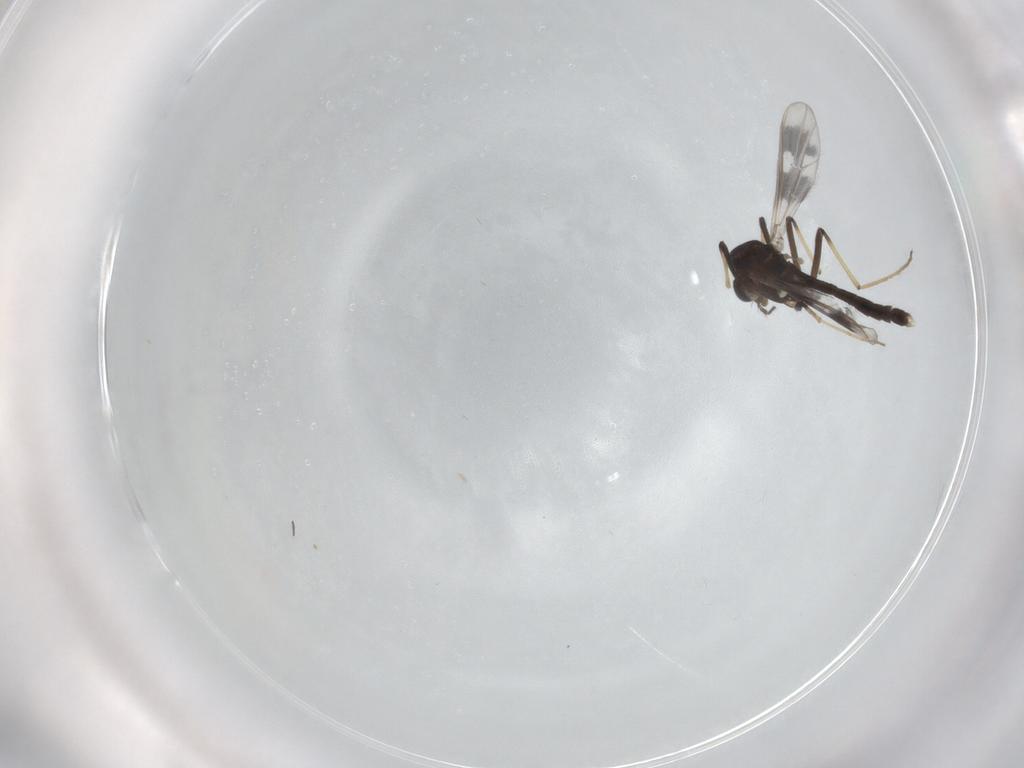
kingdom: Animalia
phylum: Arthropoda
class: Insecta
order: Diptera
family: Chironomidae
